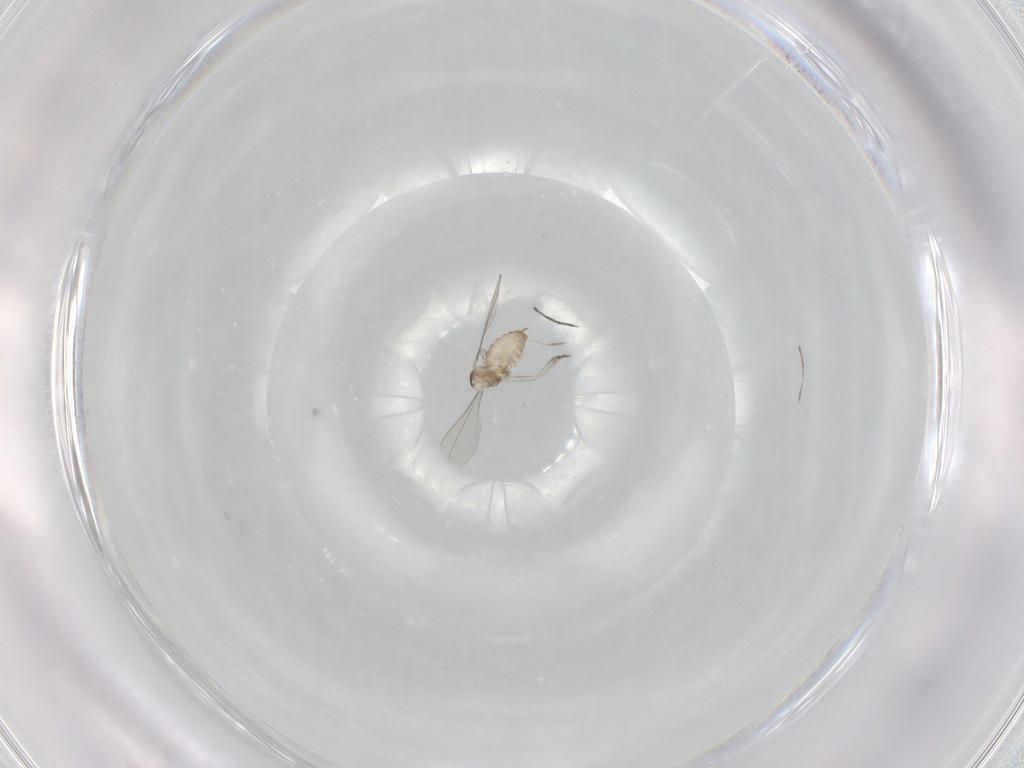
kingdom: Animalia
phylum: Arthropoda
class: Insecta
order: Diptera
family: Cecidomyiidae
